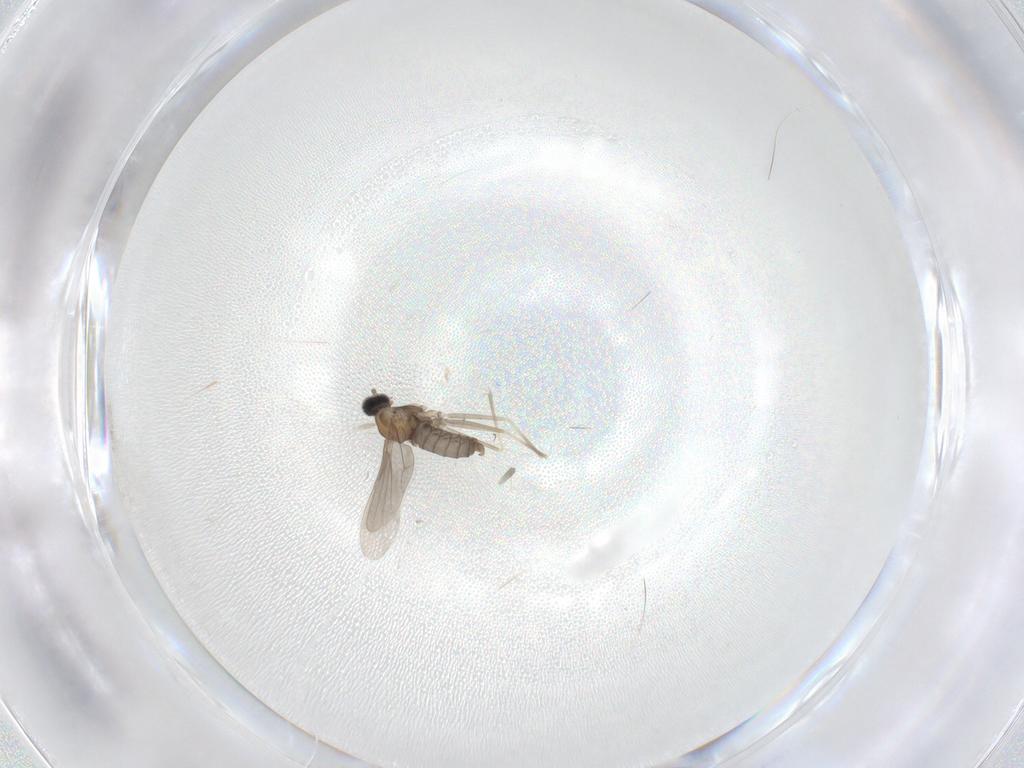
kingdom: Animalia
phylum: Arthropoda
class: Insecta
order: Diptera
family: Cecidomyiidae
